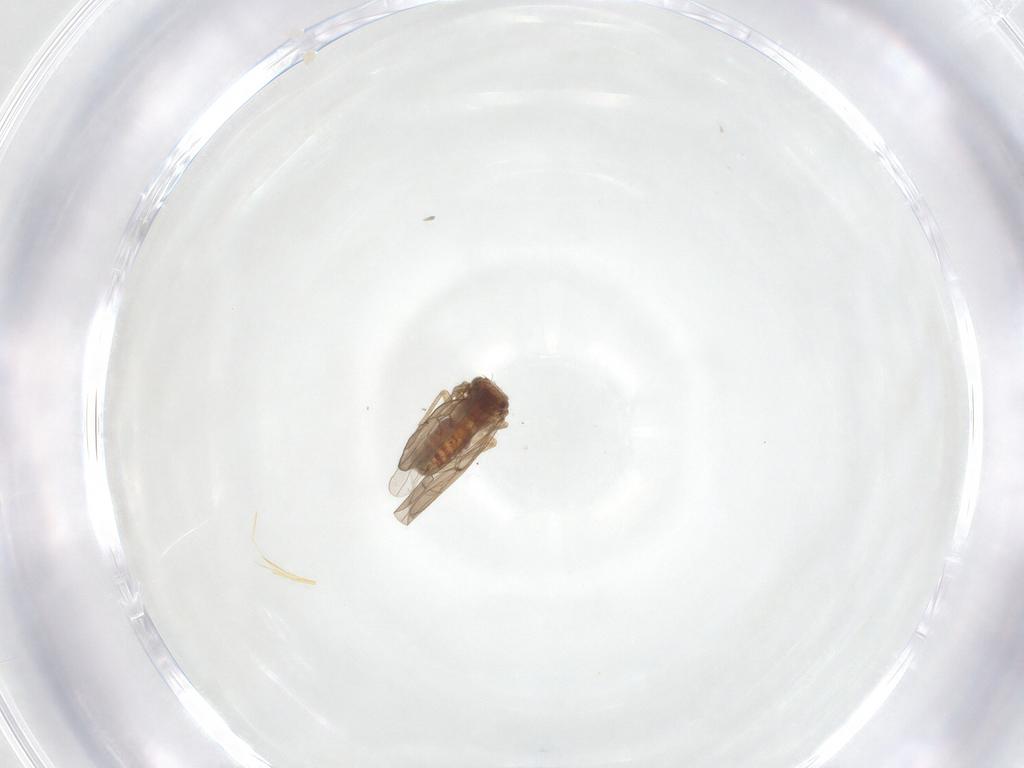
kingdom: Animalia
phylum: Arthropoda
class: Insecta
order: Psocodea
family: Ectopsocidae
